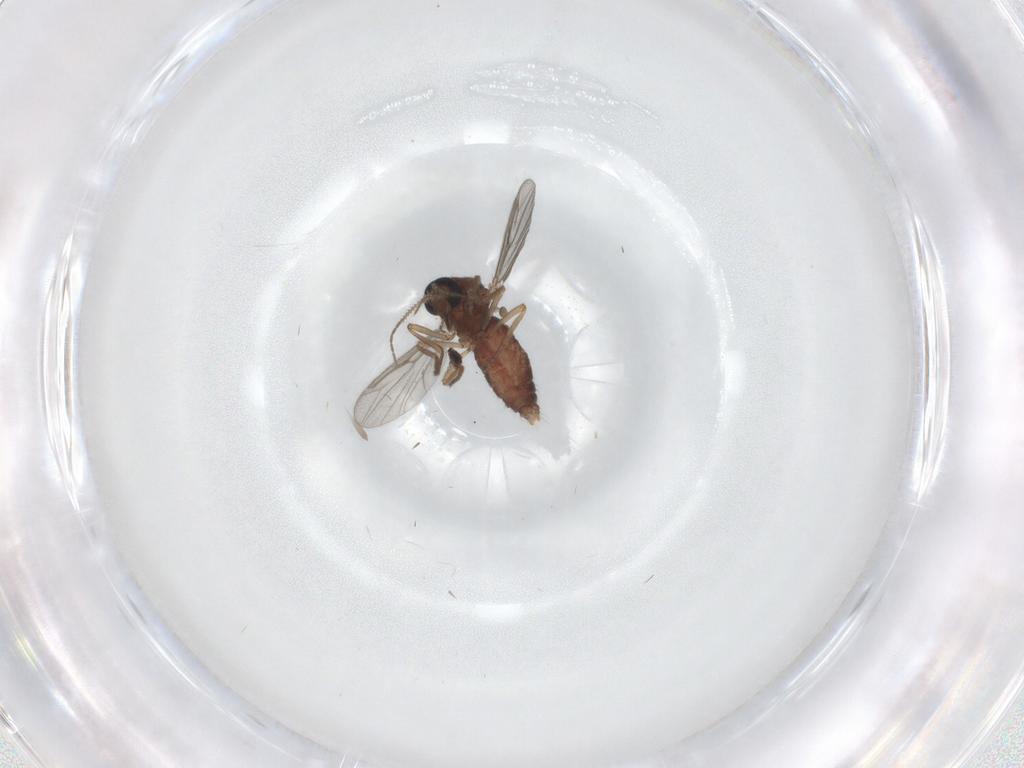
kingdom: Animalia
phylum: Arthropoda
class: Insecta
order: Diptera
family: Ceratopogonidae
